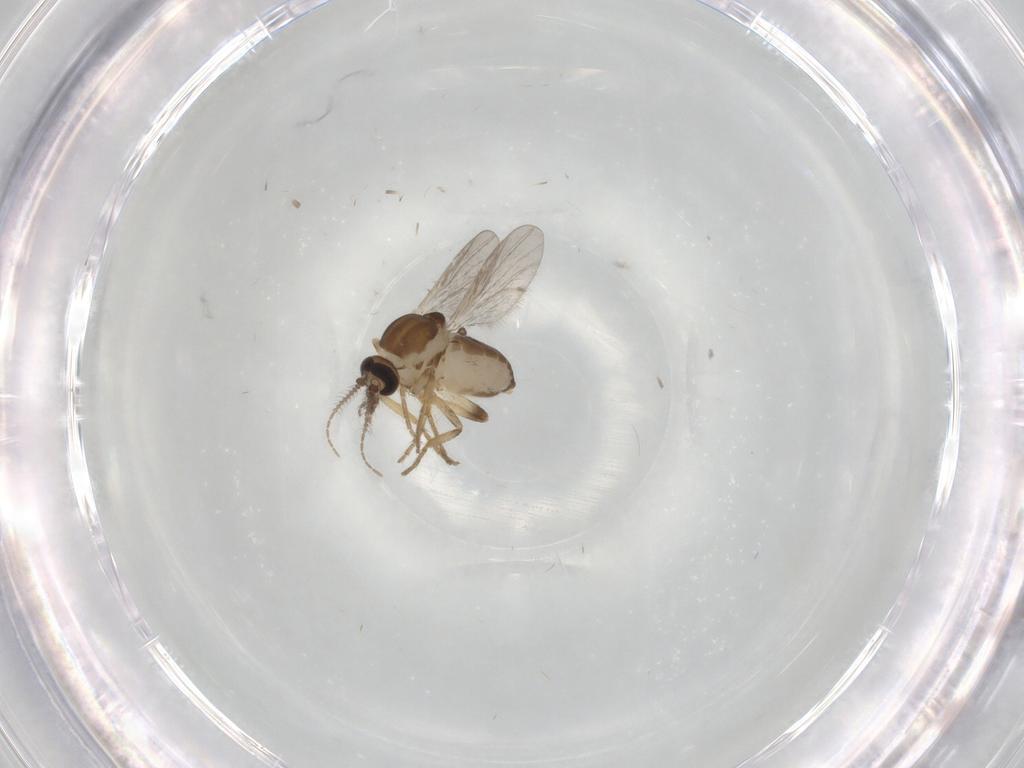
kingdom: Animalia
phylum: Arthropoda
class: Insecta
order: Diptera
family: Ceratopogonidae
